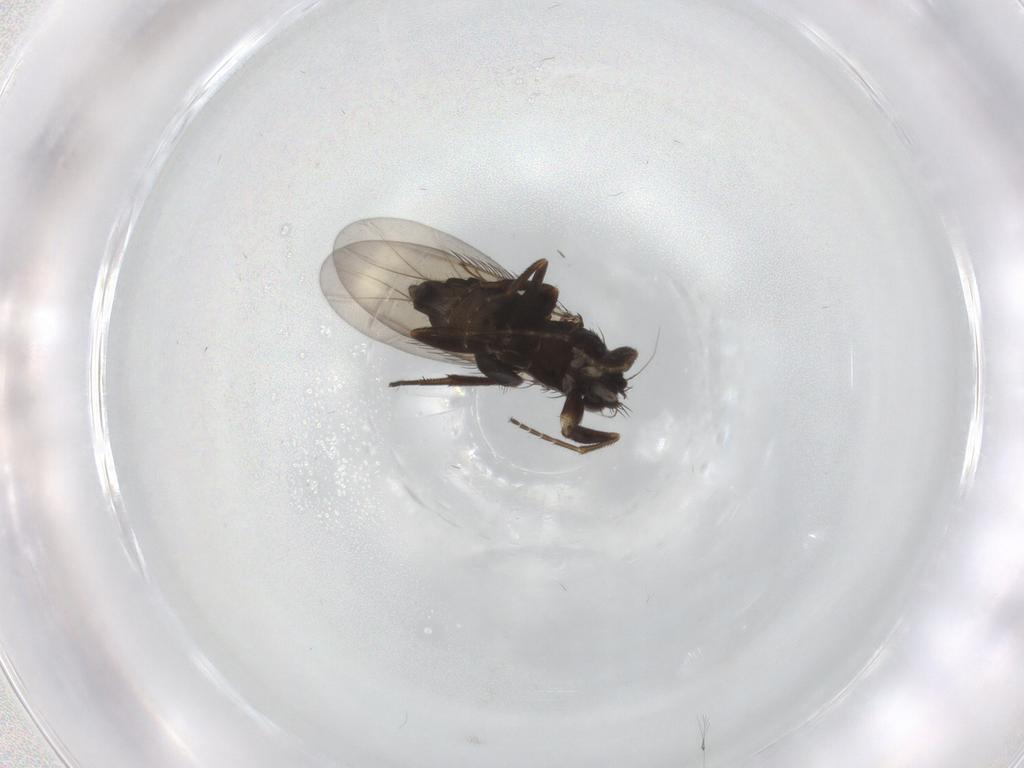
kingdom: Animalia
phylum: Arthropoda
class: Insecta
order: Diptera
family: Phoridae
